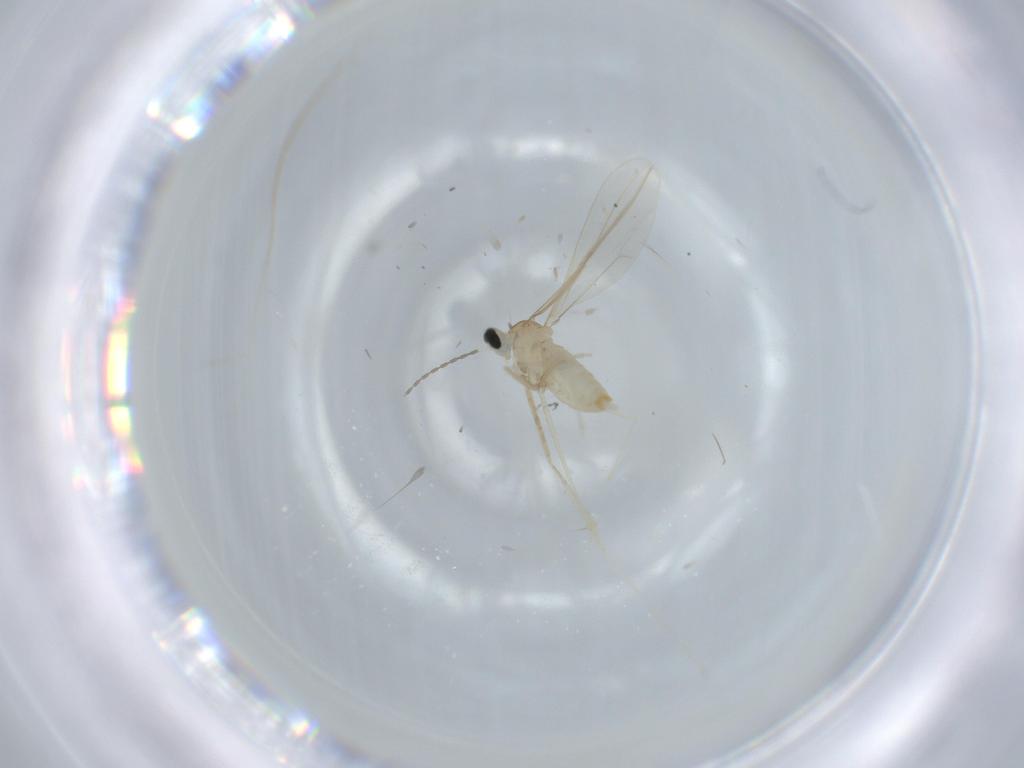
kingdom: Animalia
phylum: Arthropoda
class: Insecta
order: Diptera
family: Cecidomyiidae
